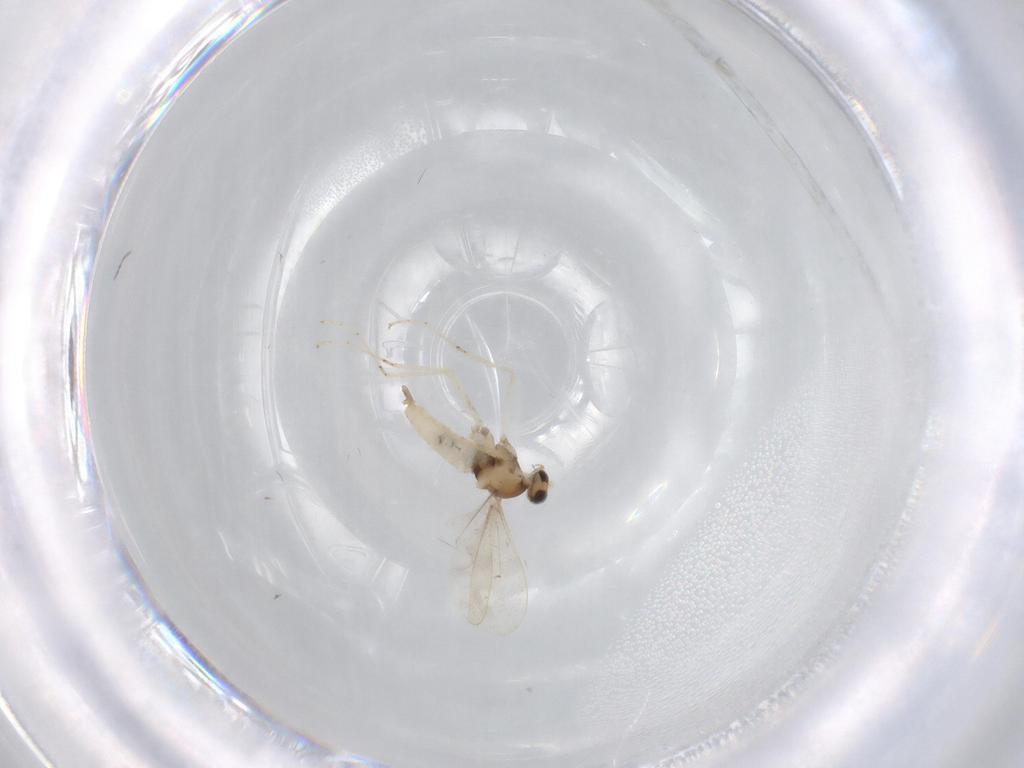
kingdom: Animalia
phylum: Arthropoda
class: Insecta
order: Diptera
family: Cecidomyiidae
